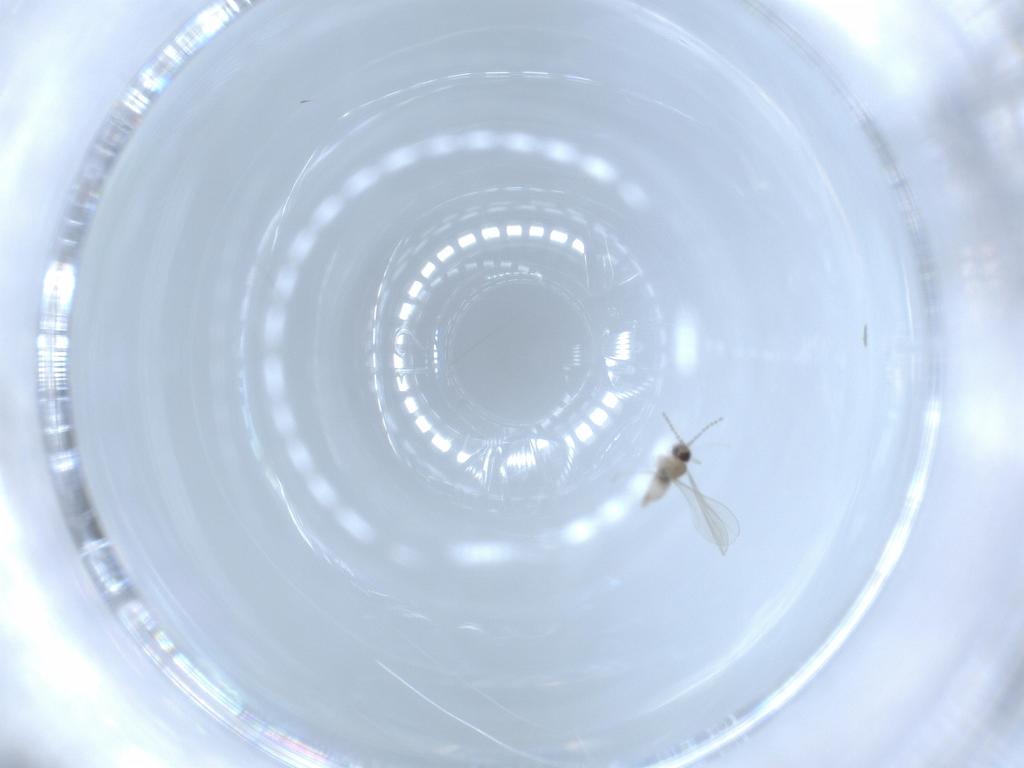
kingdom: Animalia
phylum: Arthropoda
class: Insecta
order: Diptera
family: Cecidomyiidae
